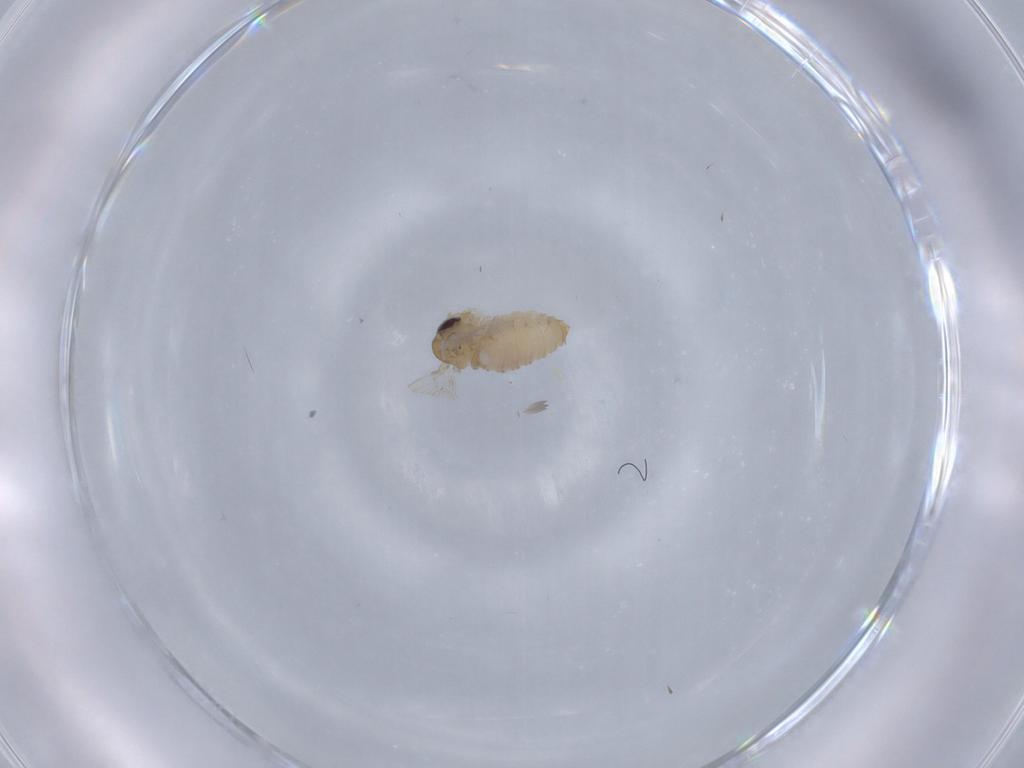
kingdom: Animalia
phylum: Arthropoda
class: Insecta
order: Diptera
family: Psychodidae
